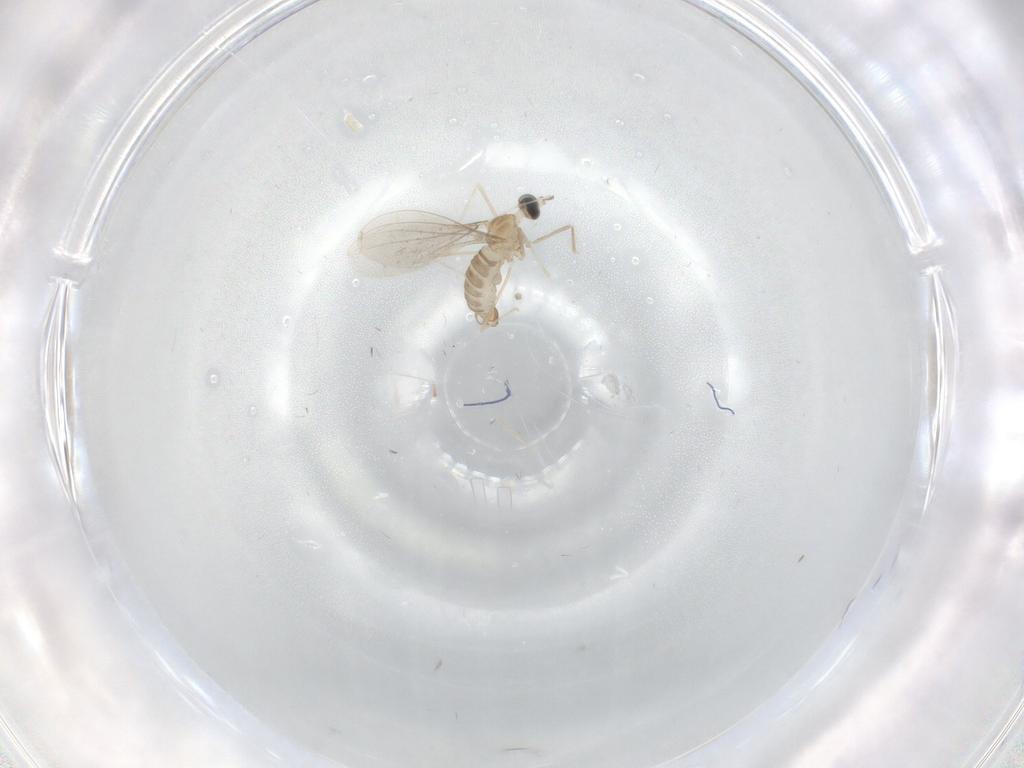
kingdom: Animalia
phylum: Arthropoda
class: Insecta
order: Diptera
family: Cecidomyiidae
